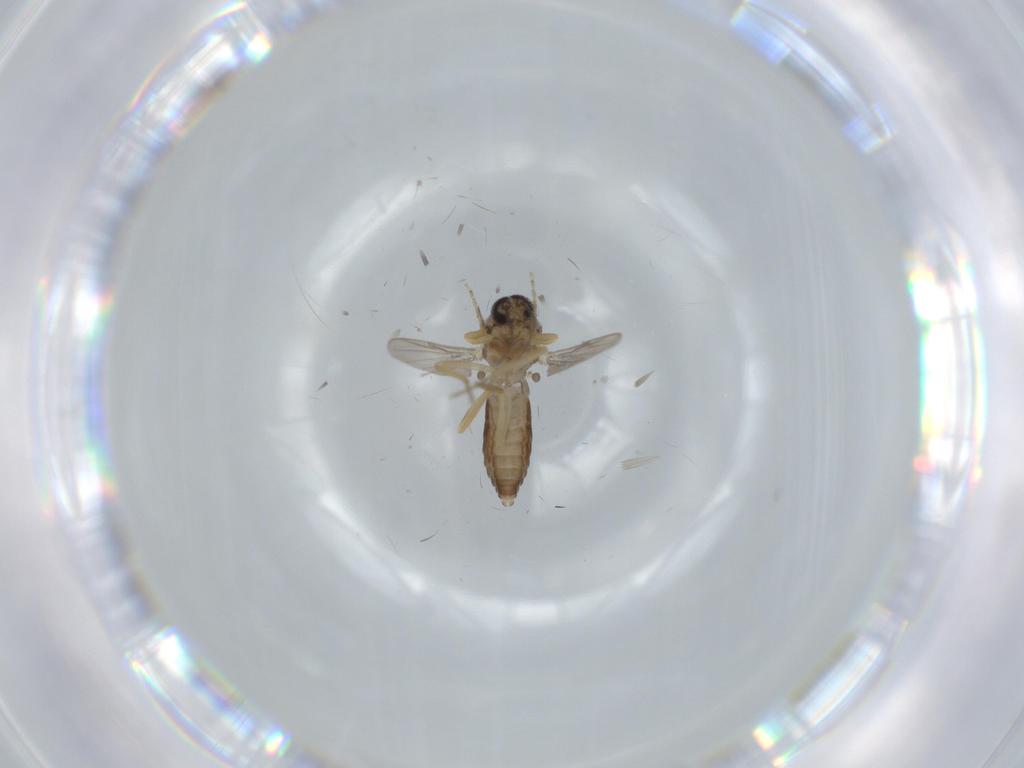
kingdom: Animalia
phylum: Arthropoda
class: Insecta
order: Diptera
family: Ceratopogonidae
